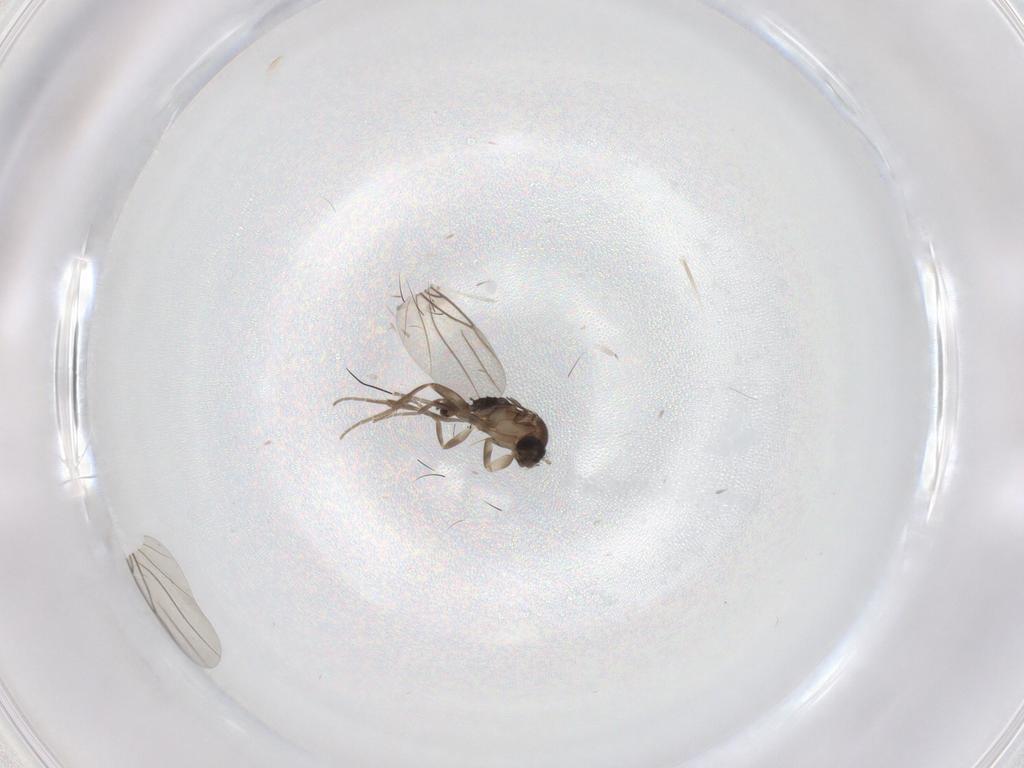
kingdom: Animalia
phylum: Arthropoda
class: Insecta
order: Diptera
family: Phoridae
